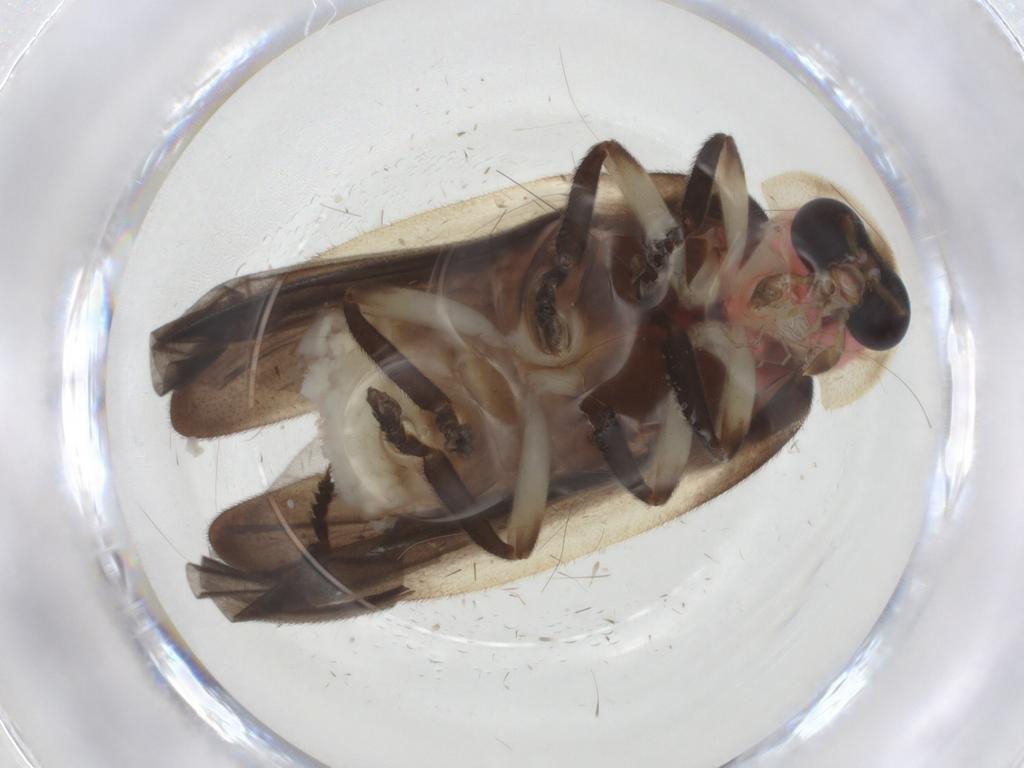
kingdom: Animalia
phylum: Arthropoda
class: Insecta
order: Coleoptera
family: Lampyridae
